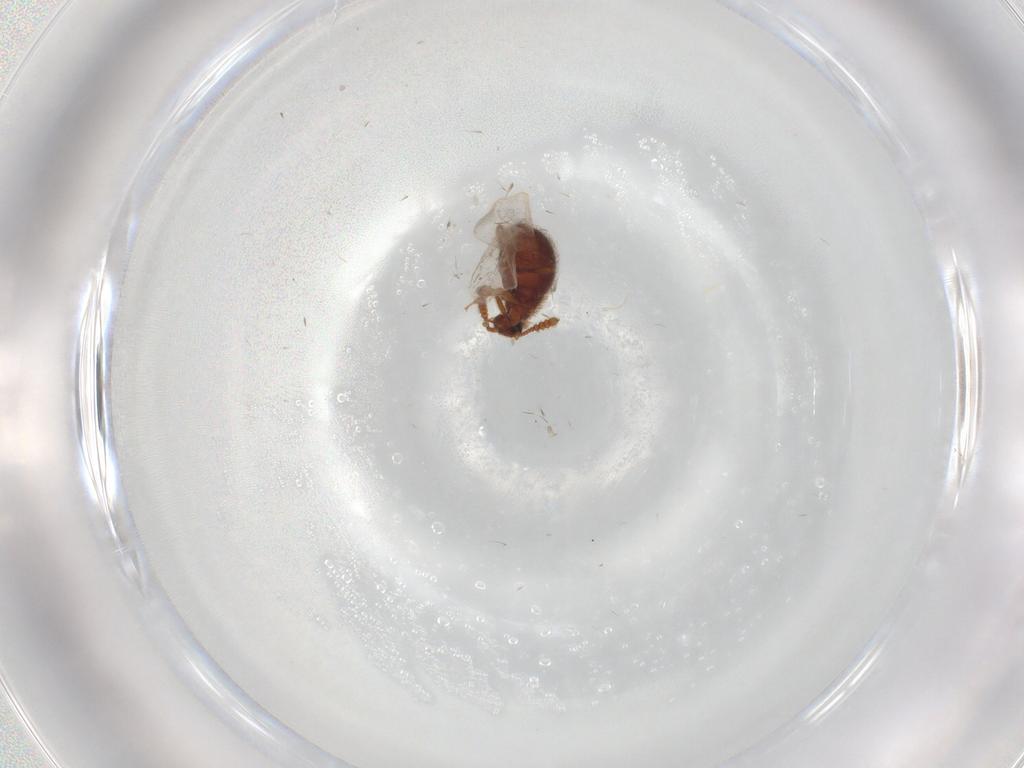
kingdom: Animalia
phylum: Arthropoda
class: Insecta
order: Coleoptera
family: Staphylinidae
